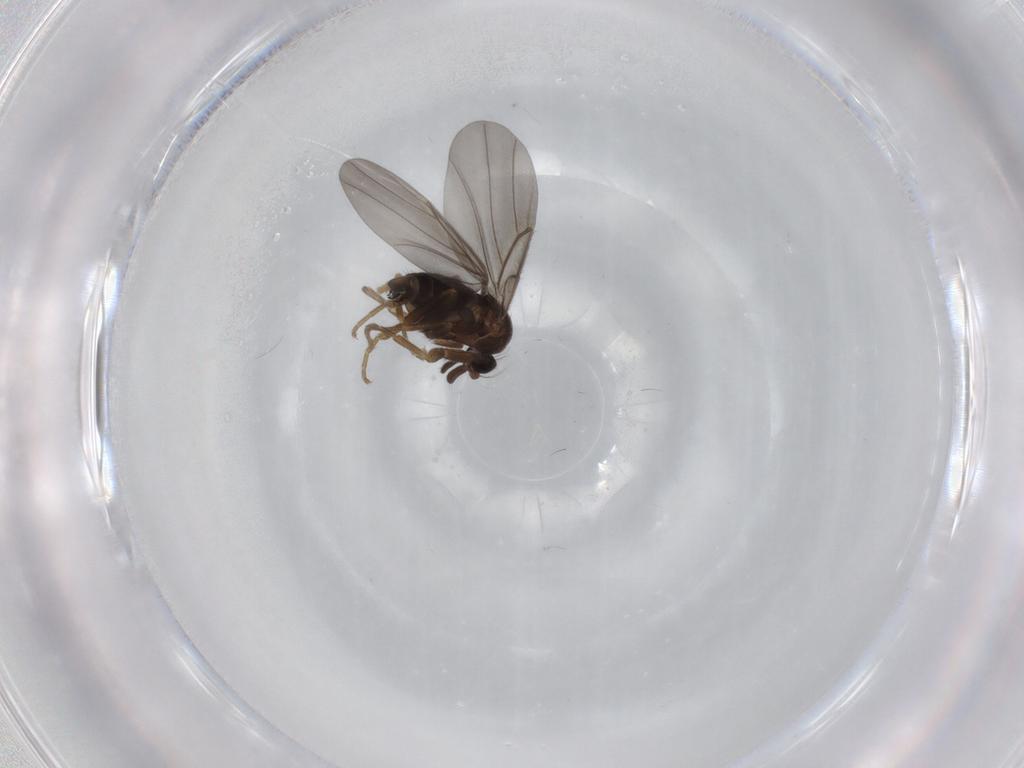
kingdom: Animalia
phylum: Arthropoda
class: Insecta
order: Diptera
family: Phoridae
